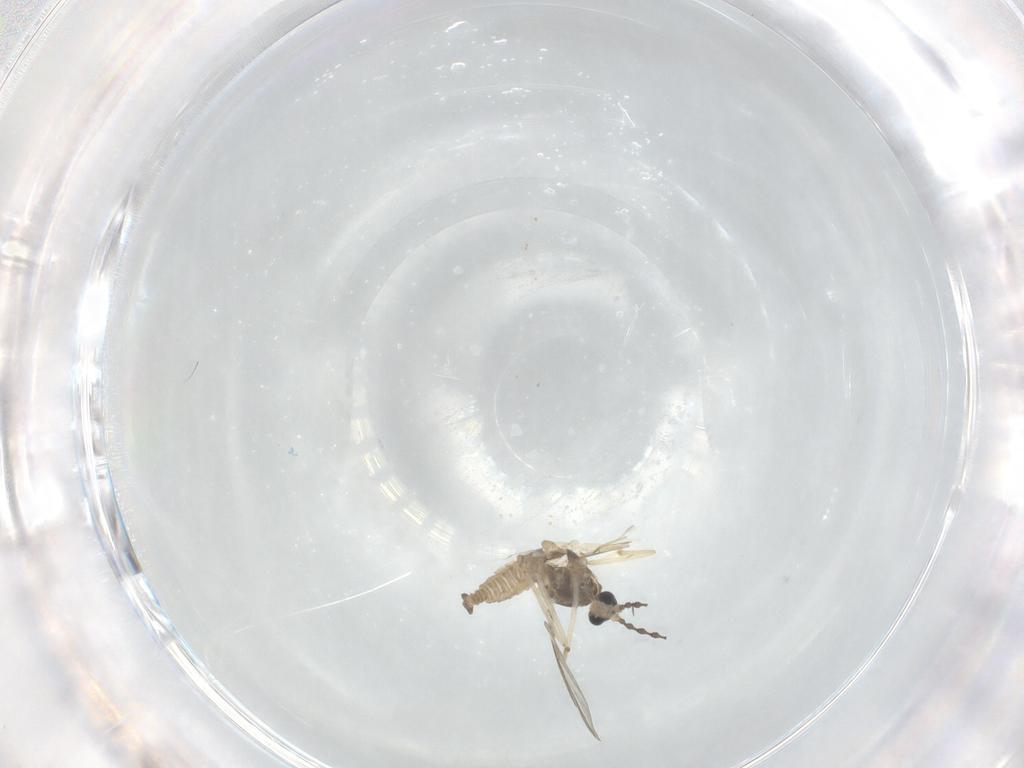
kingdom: Animalia
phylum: Arthropoda
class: Insecta
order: Diptera
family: Cecidomyiidae
